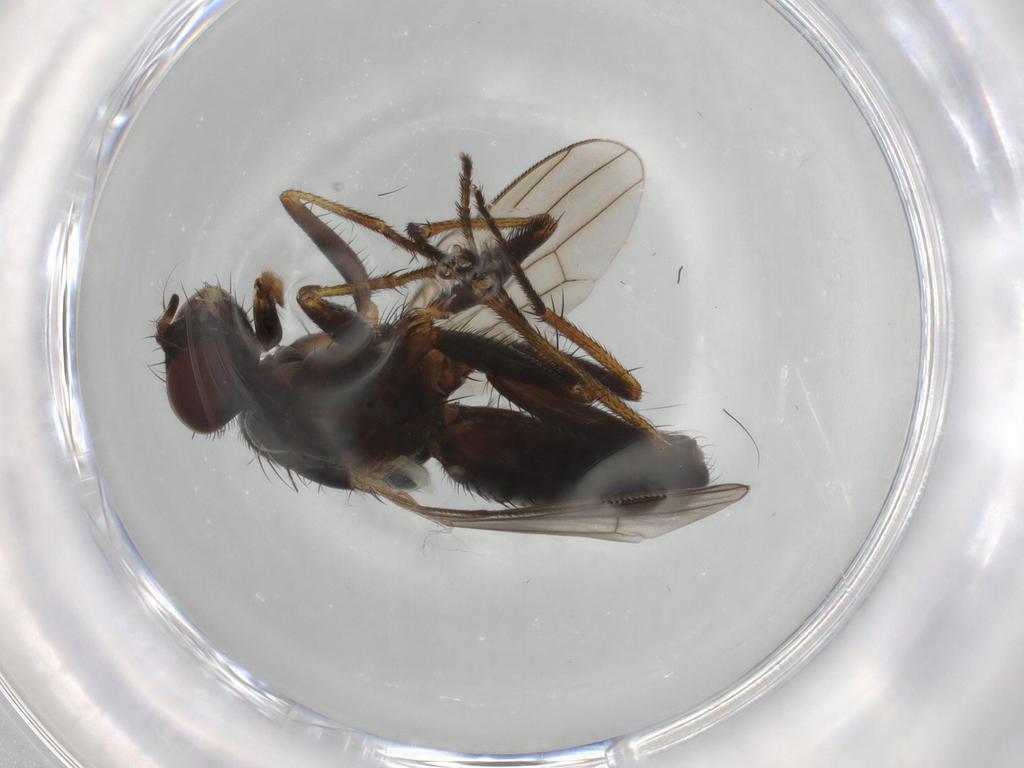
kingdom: Animalia
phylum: Arthropoda
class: Insecta
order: Diptera
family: Muscidae
